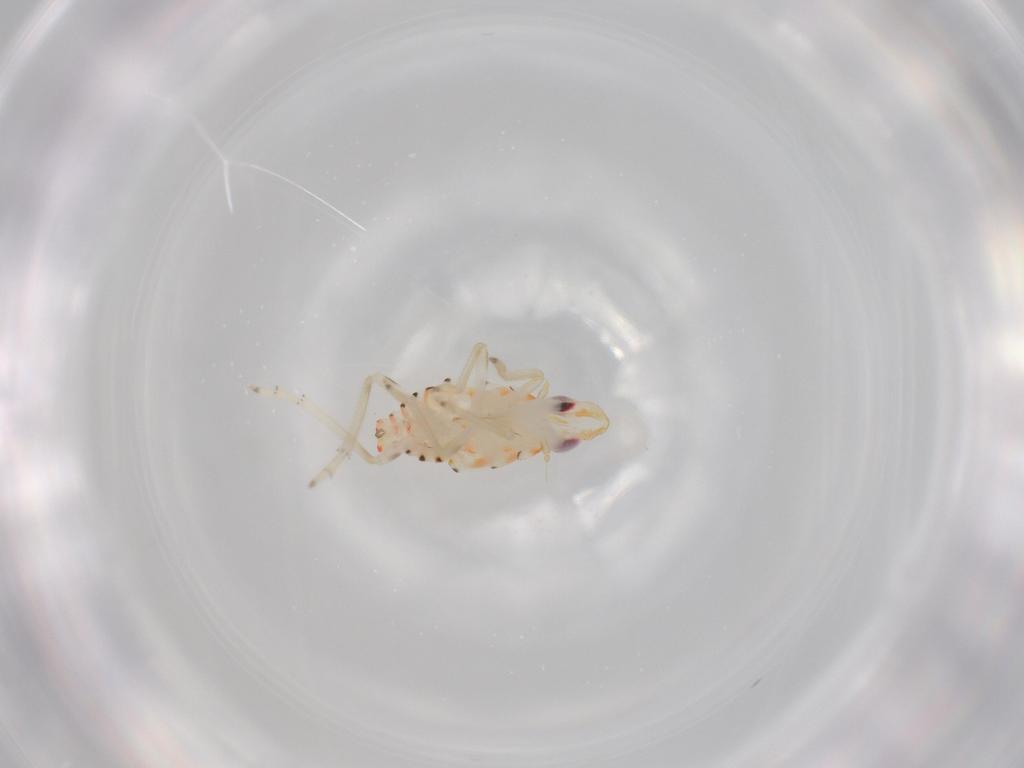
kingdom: Animalia
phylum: Arthropoda
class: Insecta
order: Hemiptera
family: Tropiduchidae
